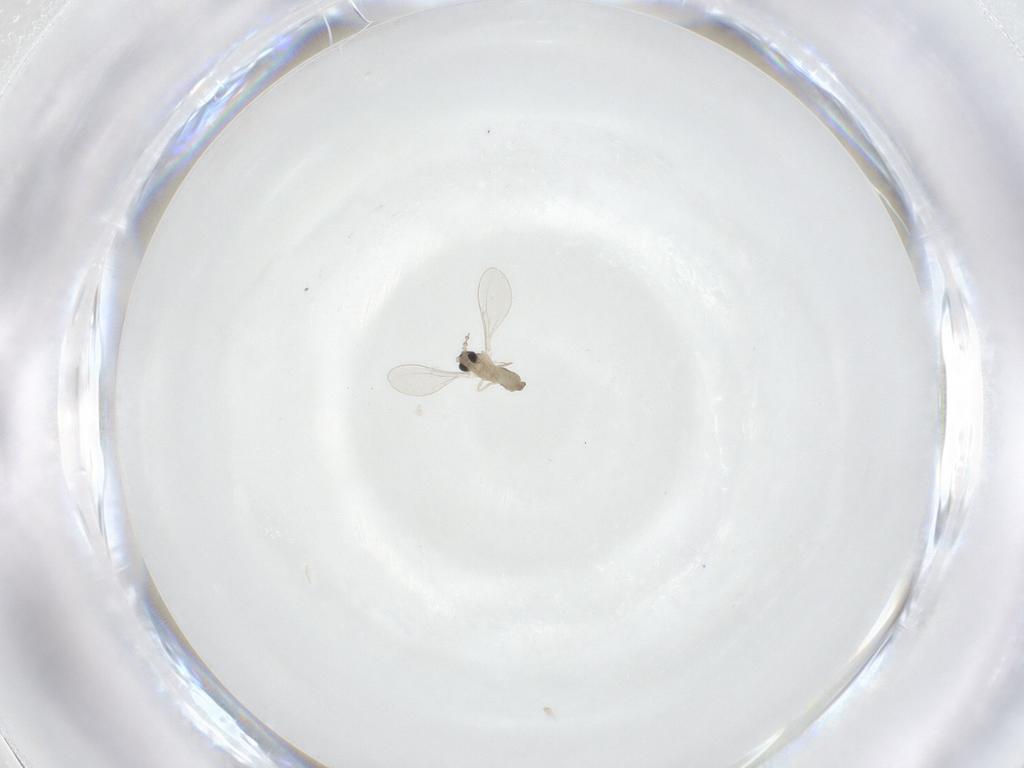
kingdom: Animalia
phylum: Arthropoda
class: Insecta
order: Diptera
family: Cecidomyiidae
